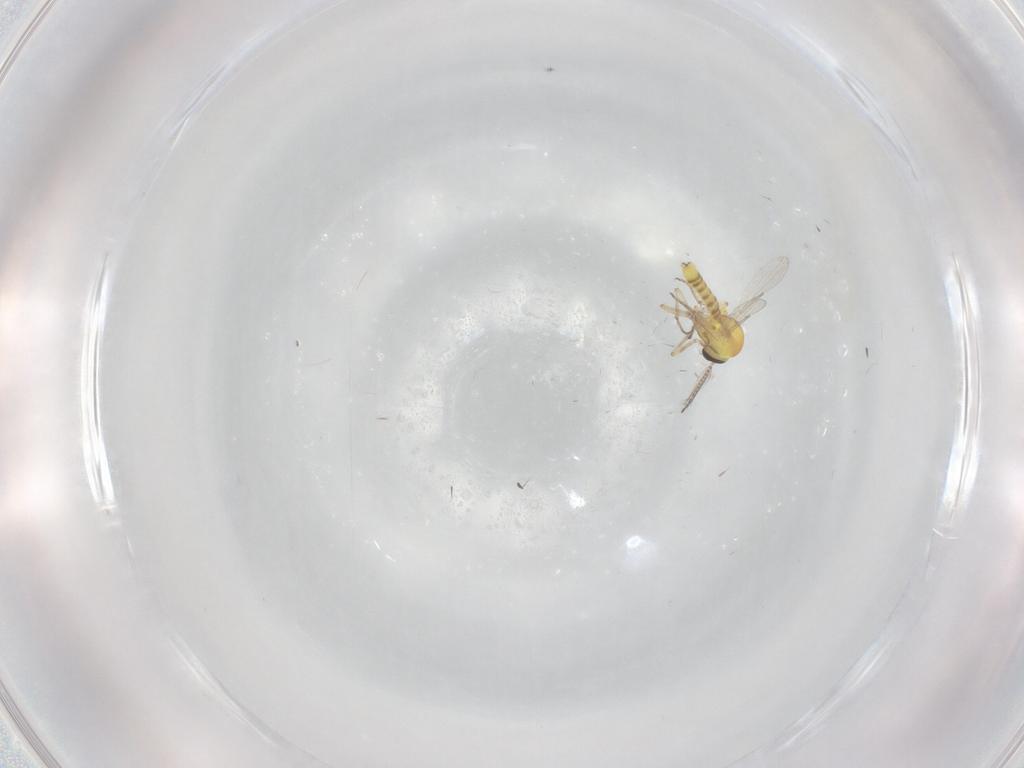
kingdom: Animalia
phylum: Arthropoda
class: Insecta
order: Diptera
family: Ceratopogonidae
